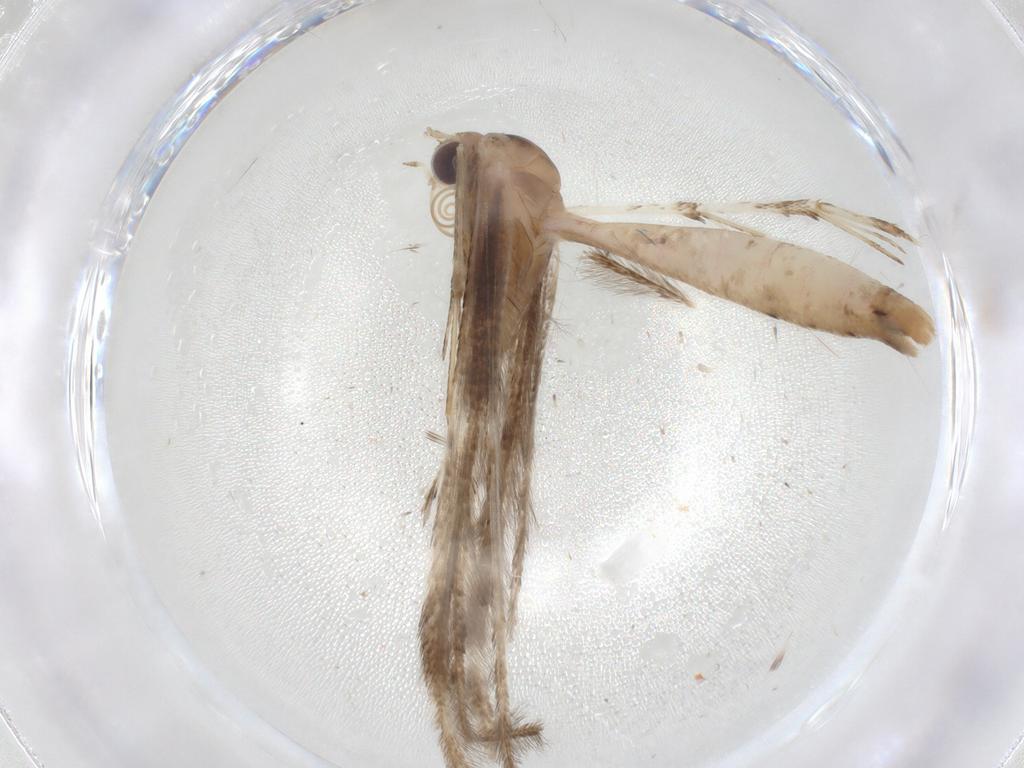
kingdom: Animalia
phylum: Arthropoda
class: Insecta
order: Lepidoptera
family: Pterophoridae
